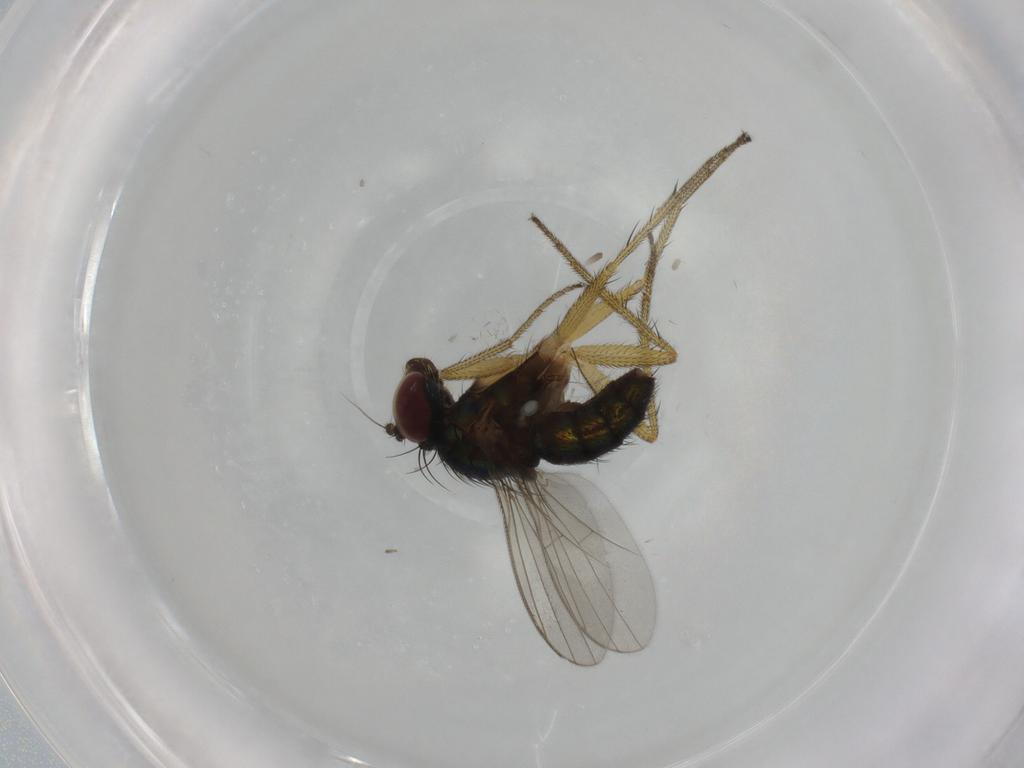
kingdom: Animalia
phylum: Arthropoda
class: Insecta
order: Diptera
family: Dolichopodidae
